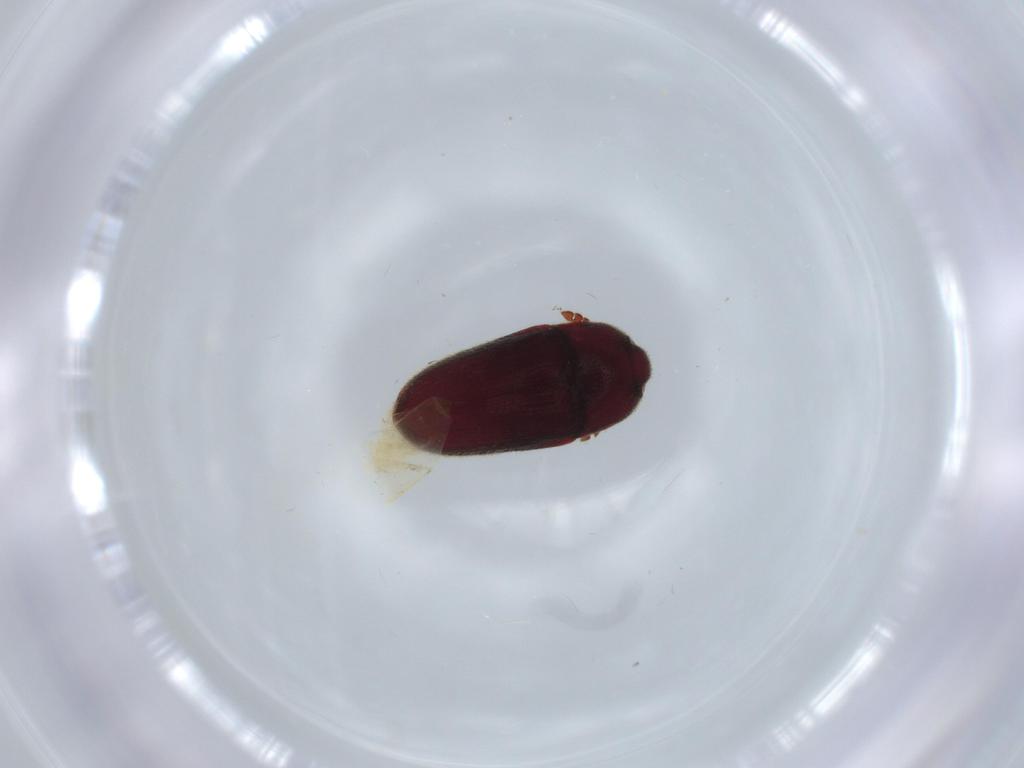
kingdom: Animalia
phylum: Arthropoda
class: Insecta
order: Coleoptera
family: Throscidae
